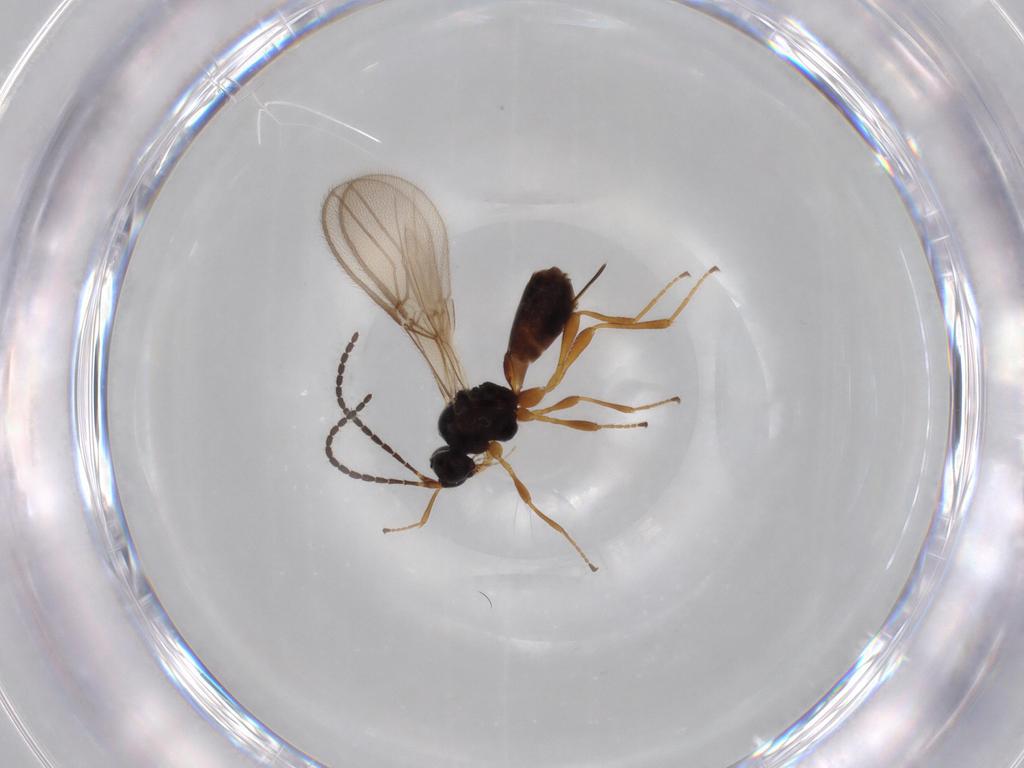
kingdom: Animalia
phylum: Arthropoda
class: Insecta
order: Hymenoptera
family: Braconidae
